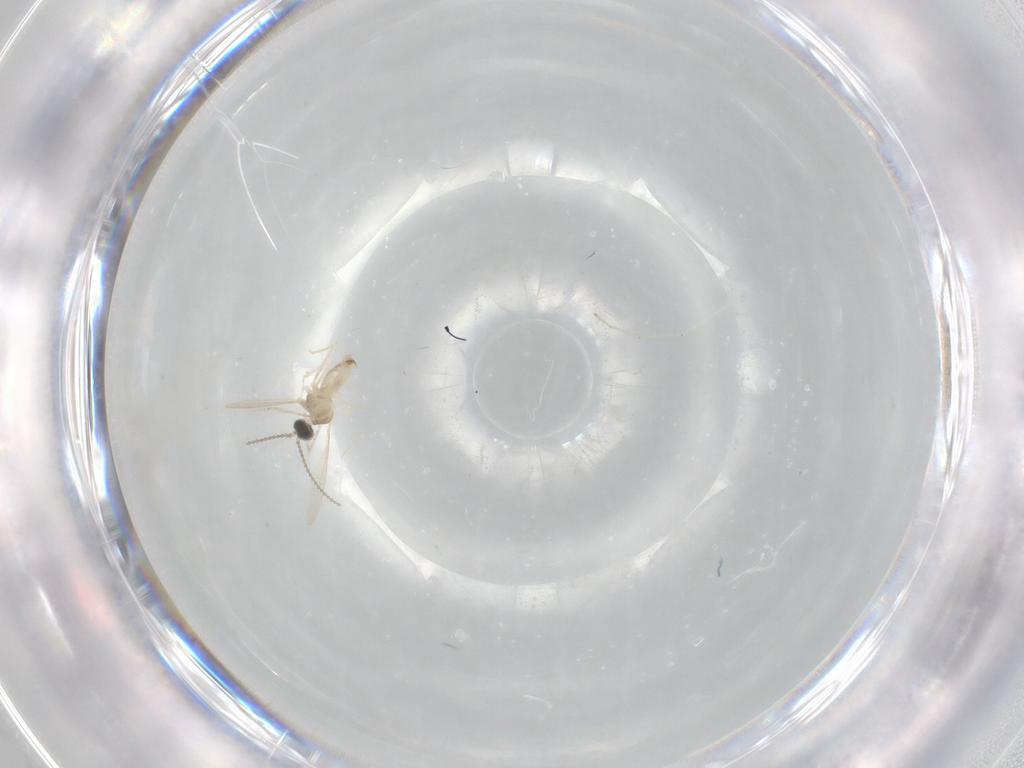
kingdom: Animalia
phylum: Arthropoda
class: Insecta
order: Diptera
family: Cecidomyiidae
